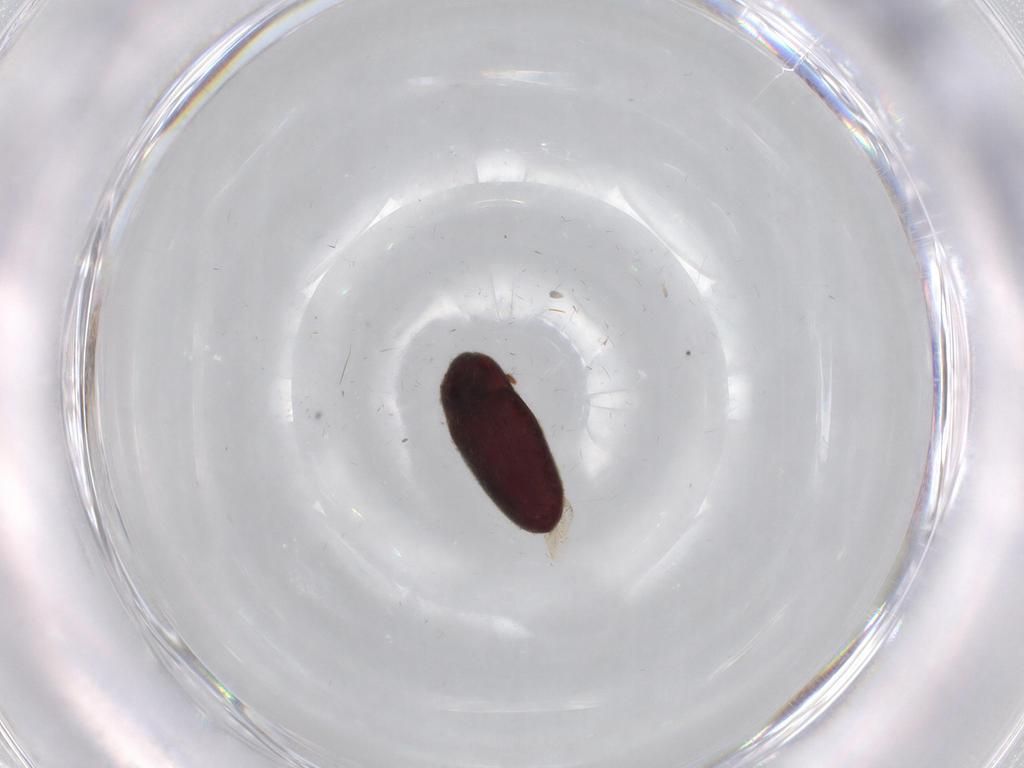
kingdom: Animalia
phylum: Arthropoda
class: Insecta
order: Coleoptera
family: Throscidae
